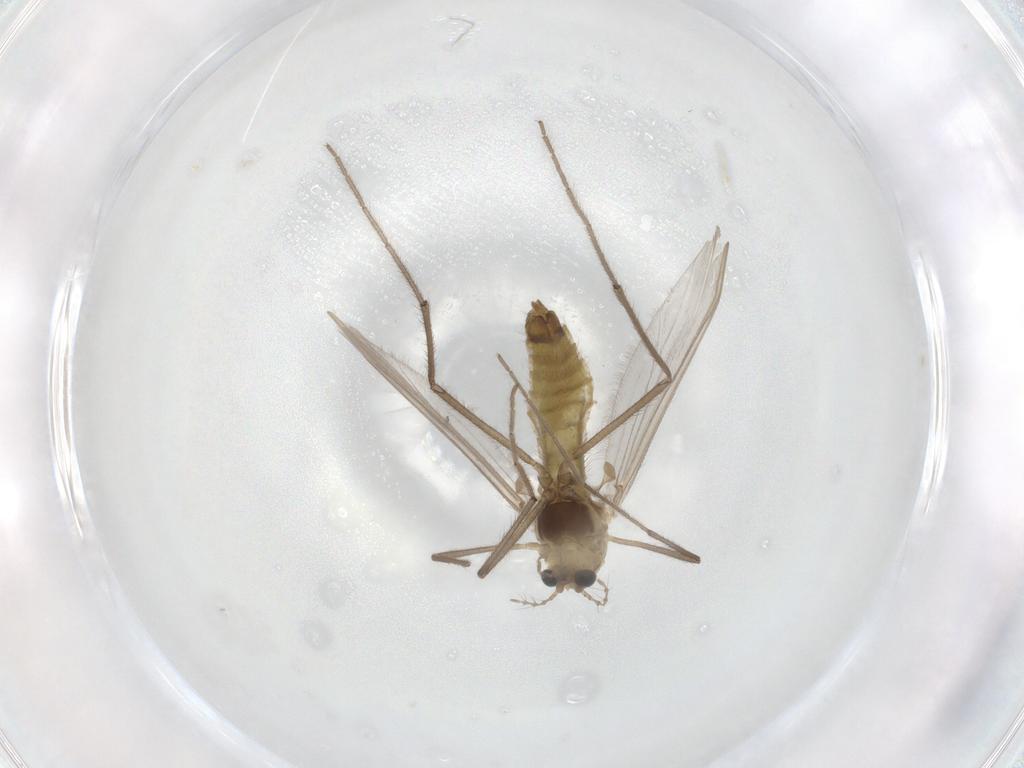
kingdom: Animalia
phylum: Arthropoda
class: Insecta
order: Diptera
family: Chironomidae
